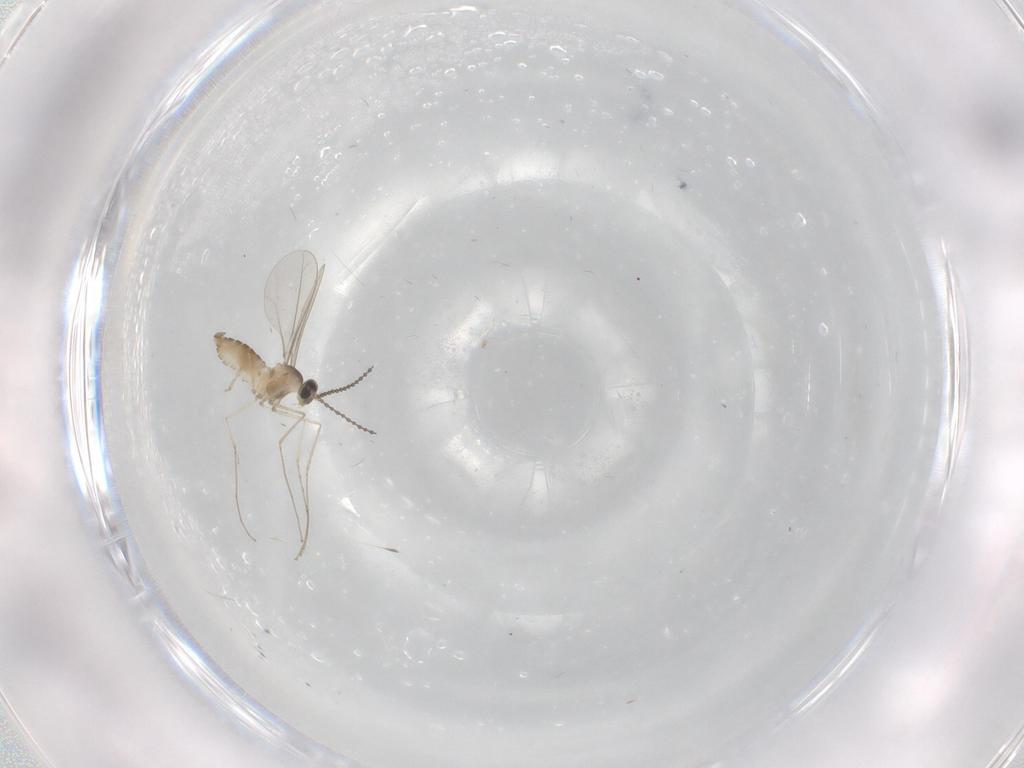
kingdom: Animalia
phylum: Arthropoda
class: Insecta
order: Diptera
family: Cecidomyiidae
